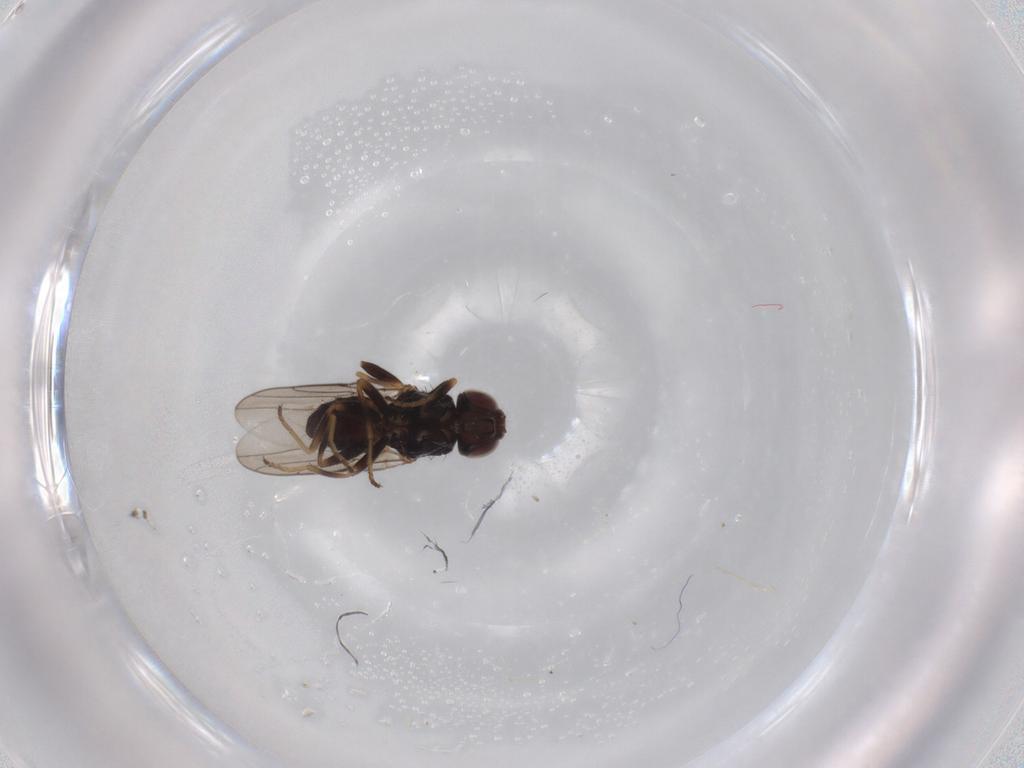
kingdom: Animalia
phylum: Arthropoda
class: Insecta
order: Diptera
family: Chloropidae
